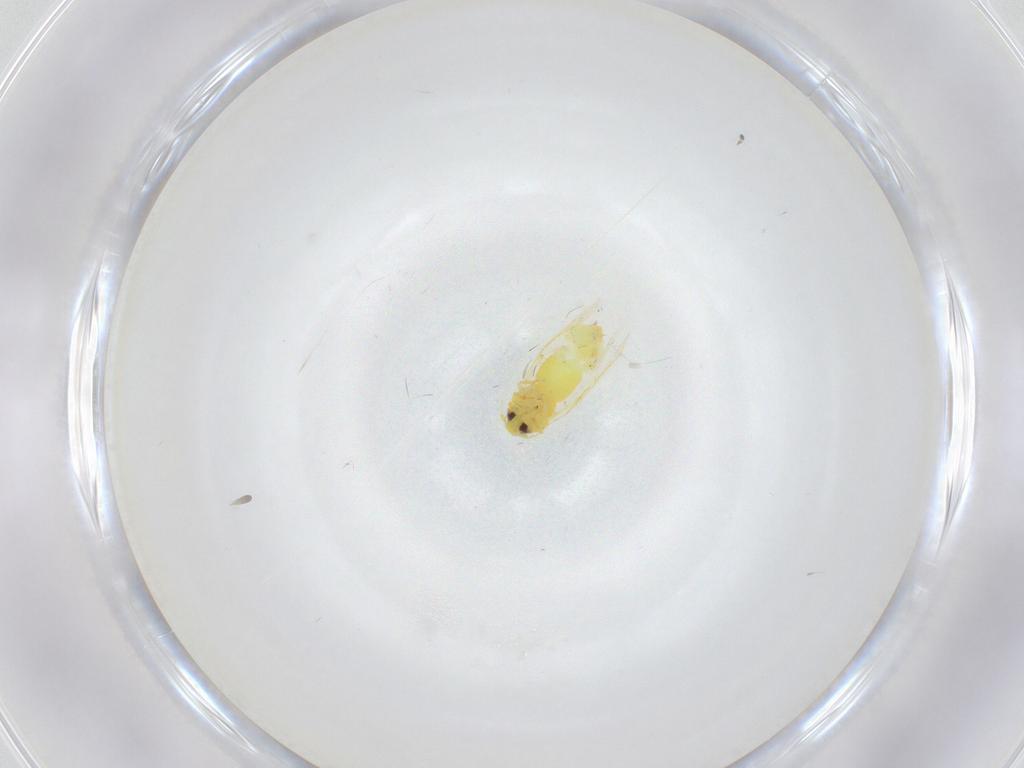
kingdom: Animalia
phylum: Arthropoda
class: Insecta
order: Hemiptera
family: Aleyrodidae
